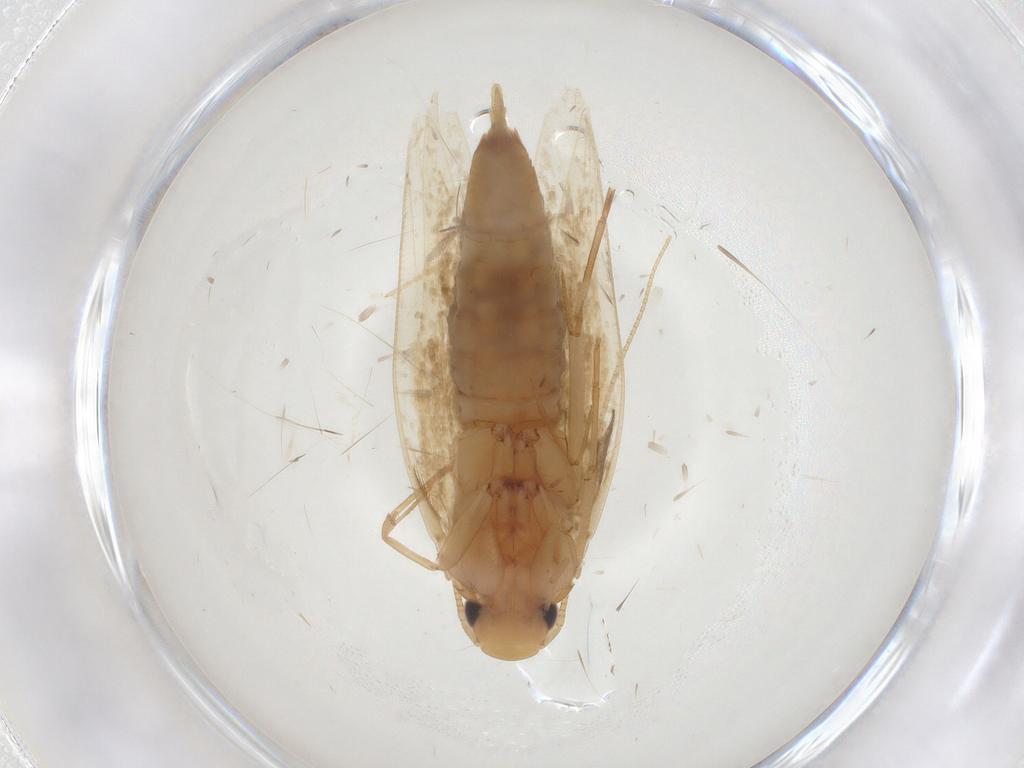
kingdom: Animalia
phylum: Arthropoda
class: Insecta
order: Lepidoptera
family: Tineidae
